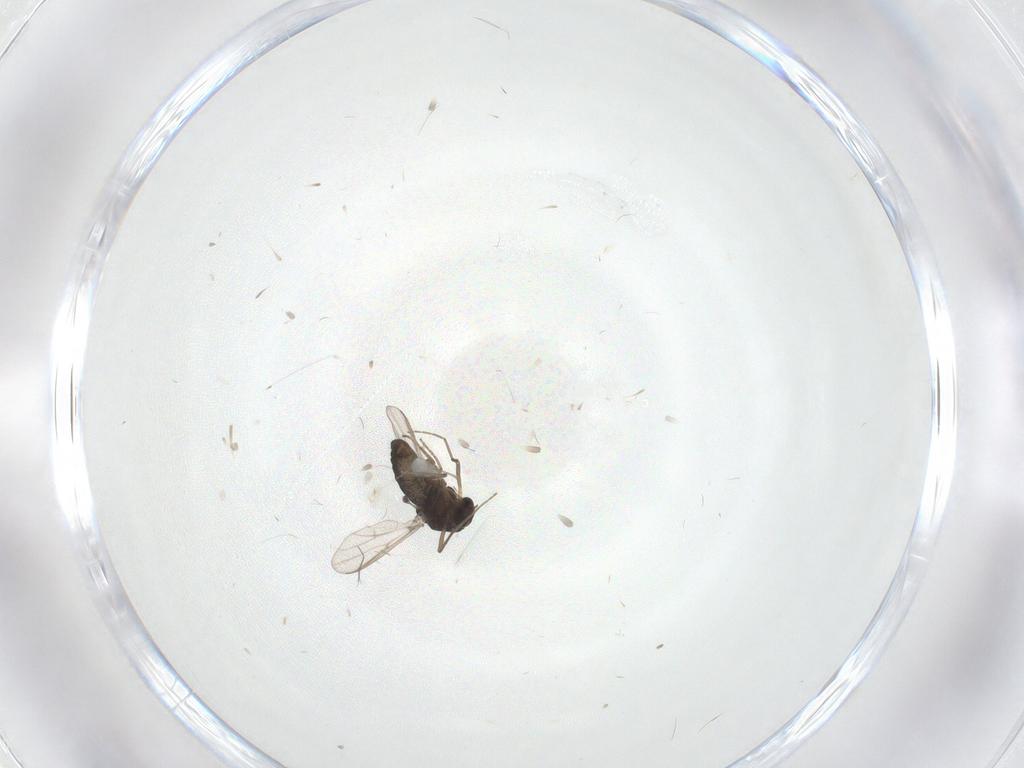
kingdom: Animalia
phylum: Arthropoda
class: Insecta
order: Diptera
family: Chironomidae
